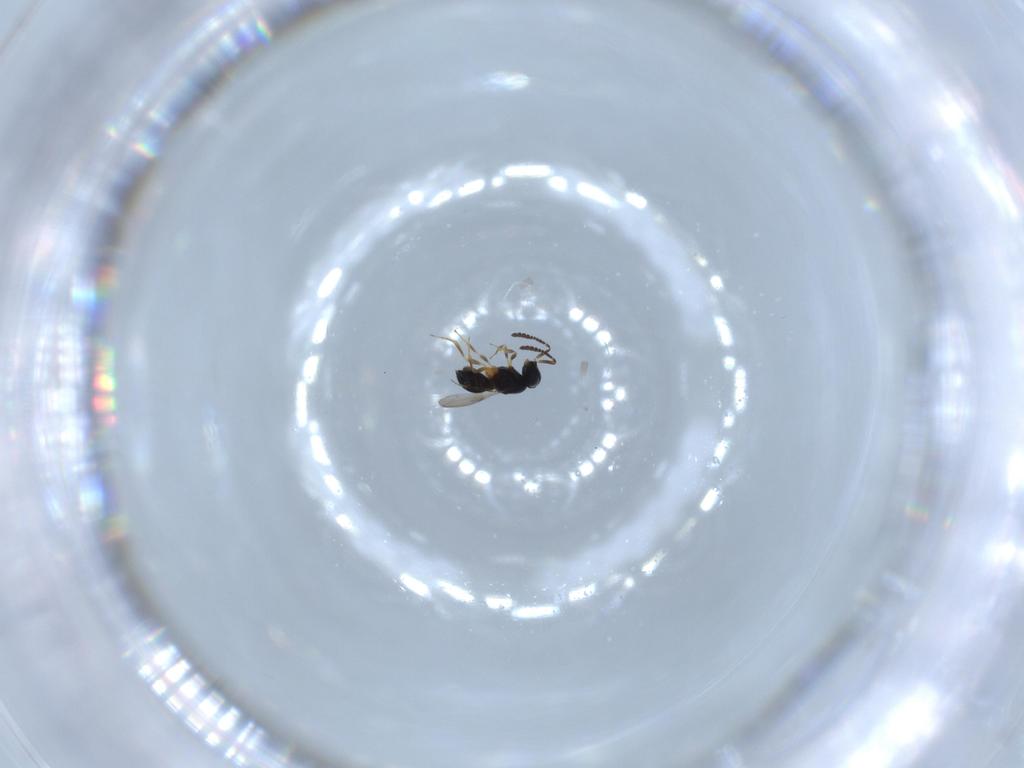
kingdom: Animalia
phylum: Arthropoda
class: Insecta
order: Hymenoptera
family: Scelionidae
